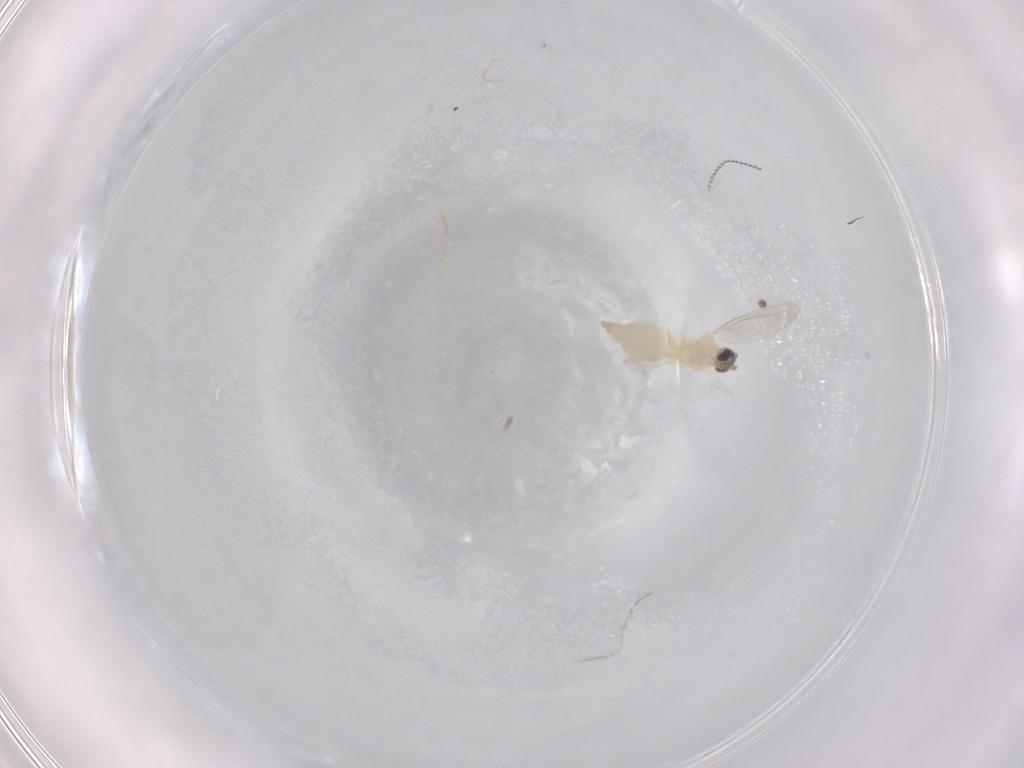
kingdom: Animalia
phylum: Arthropoda
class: Insecta
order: Diptera
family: Cecidomyiidae
